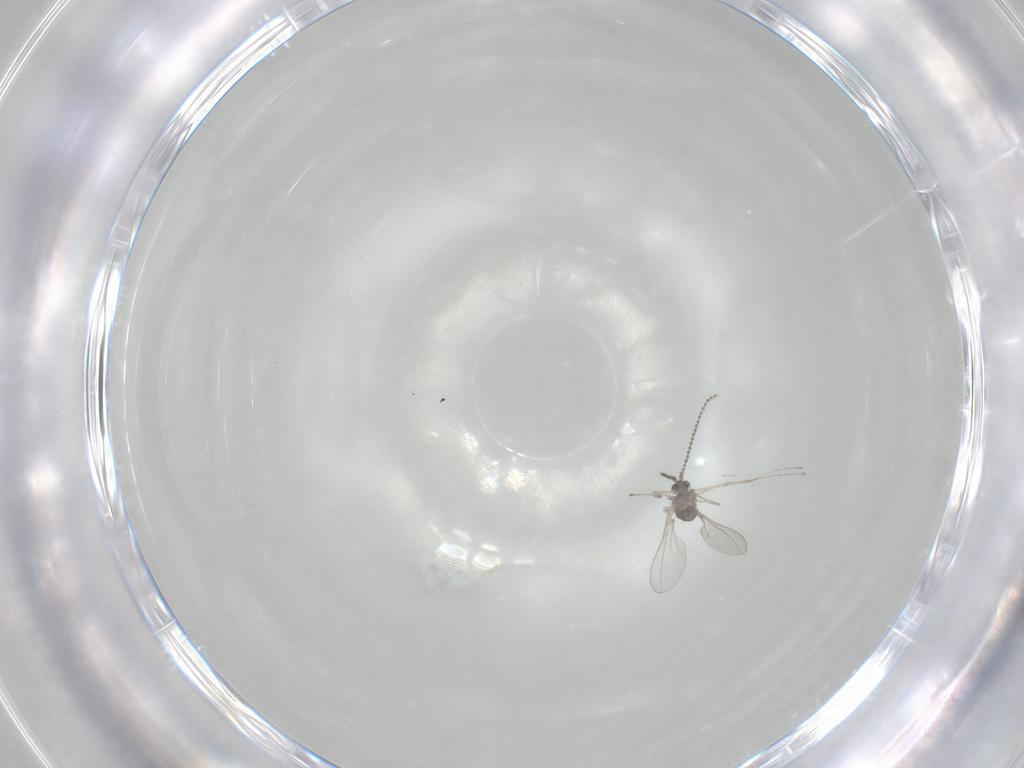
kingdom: Animalia
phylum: Arthropoda
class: Insecta
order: Diptera
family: Cecidomyiidae
